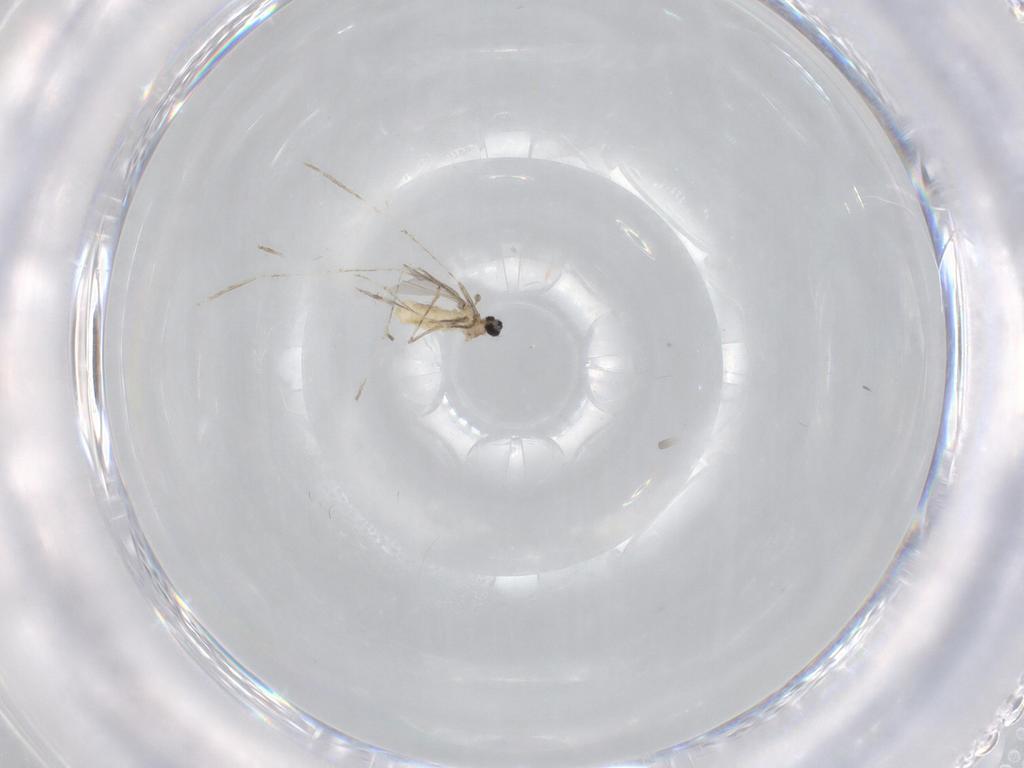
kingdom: Animalia
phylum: Arthropoda
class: Insecta
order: Diptera
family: Cecidomyiidae
